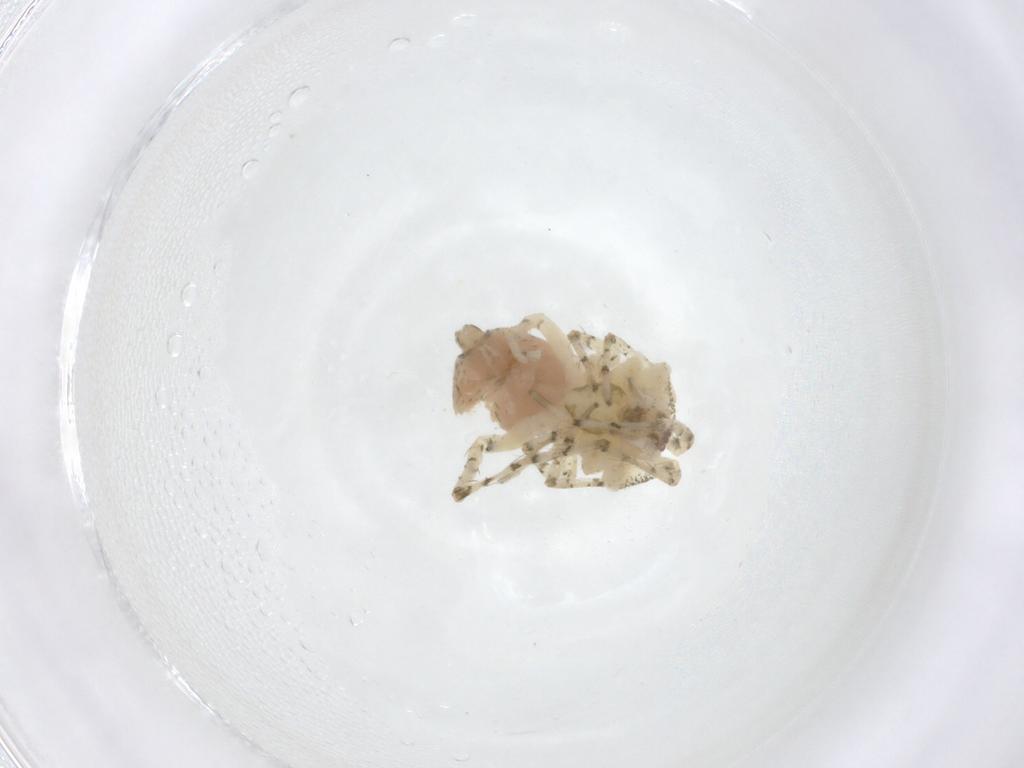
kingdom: Animalia
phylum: Arthropoda
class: Arachnida
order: Araneae
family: Anyphaenidae
